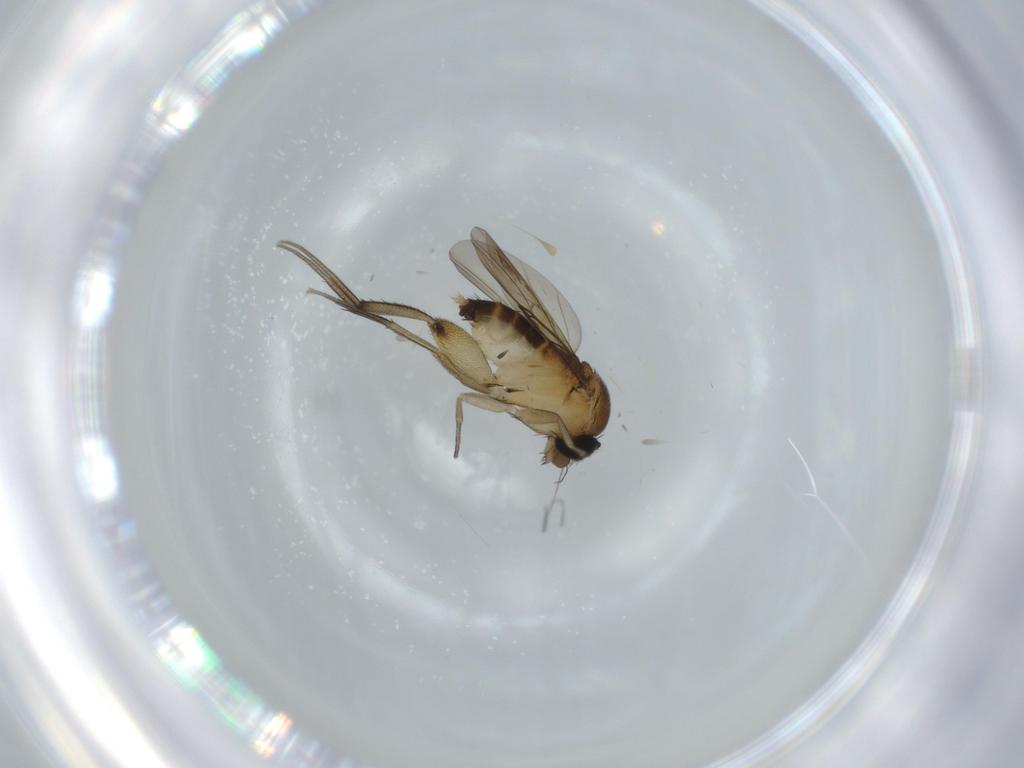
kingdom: Animalia
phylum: Arthropoda
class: Insecta
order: Diptera
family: Phoridae
